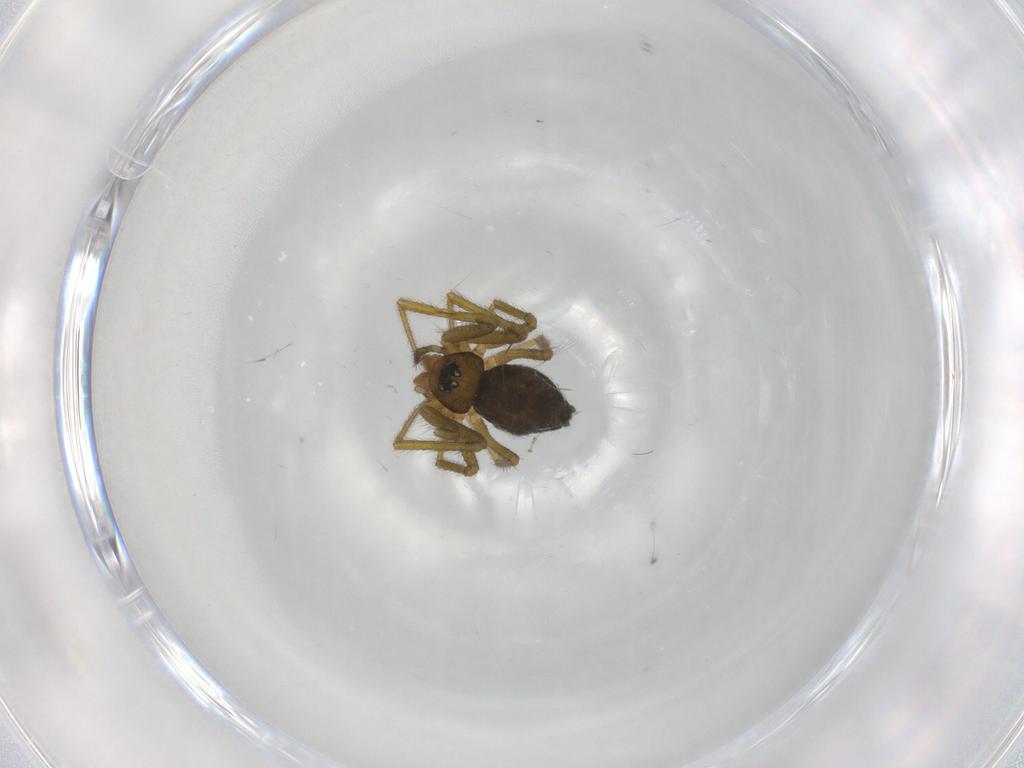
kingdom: Animalia
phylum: Arthropoda
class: Arachnida
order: Araneae
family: Linyphiidae
